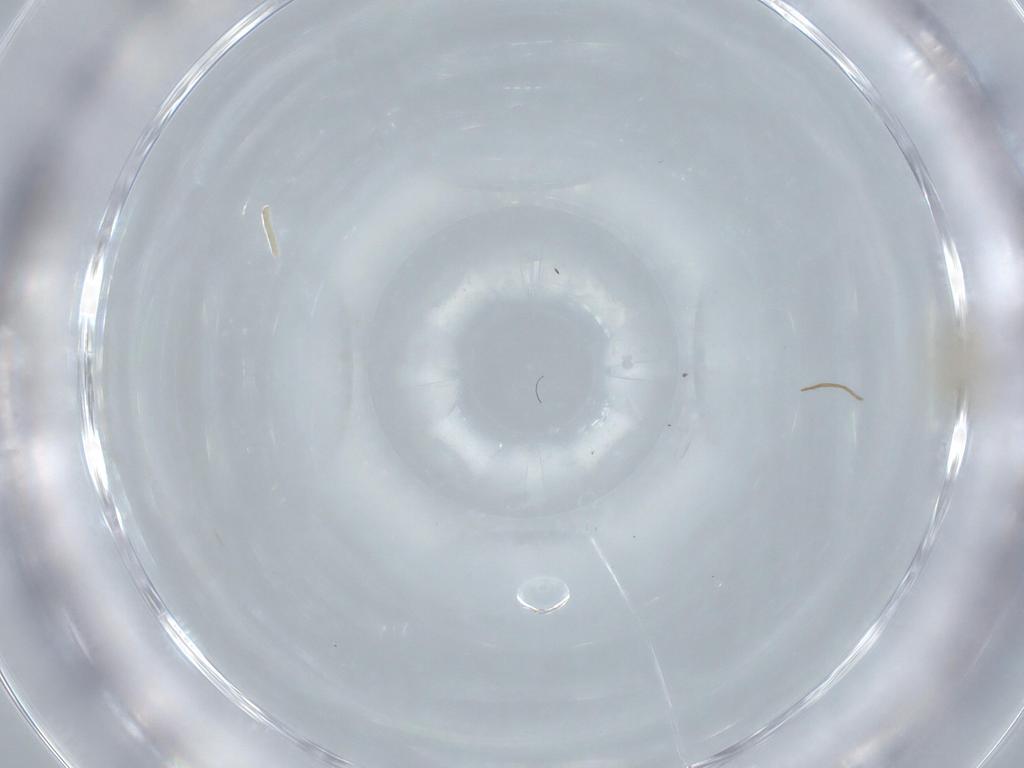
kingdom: Animalia
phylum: Arthropoda
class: Insecta
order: Diptera
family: Cecidomyiidae
